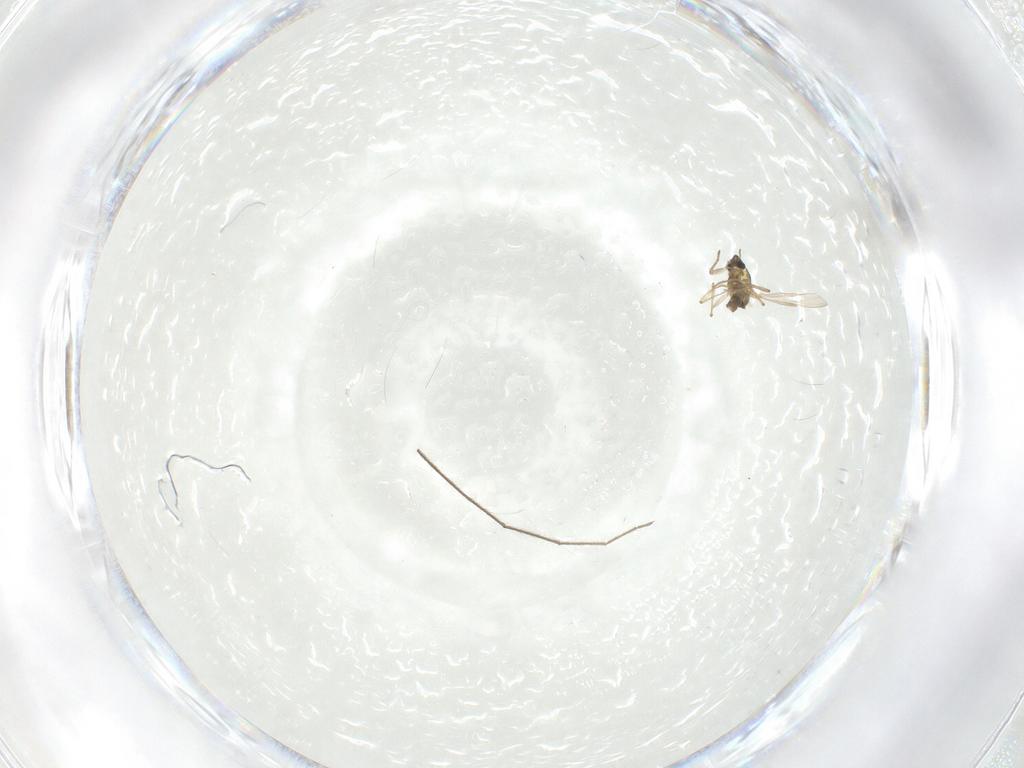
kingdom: Animalia
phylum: Arthropoda
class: Insecta
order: Diptera
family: Chironomidae
